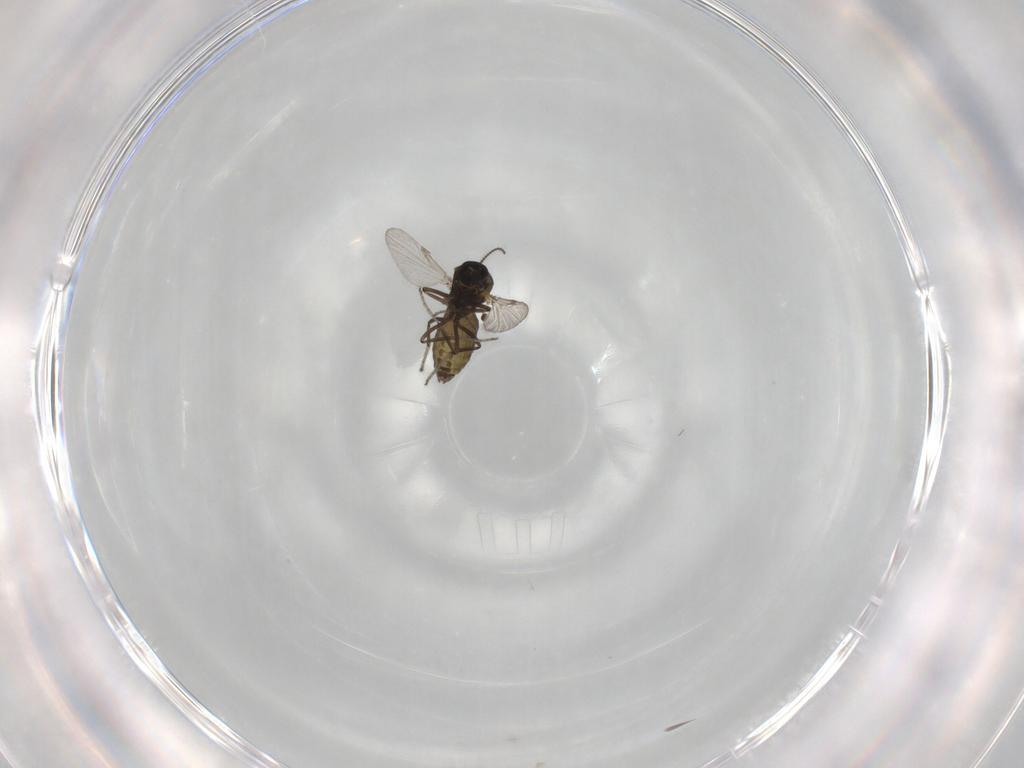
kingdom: Animalia
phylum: Arthropoda
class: Insecta
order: Diptera
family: Ceratopogonidae
